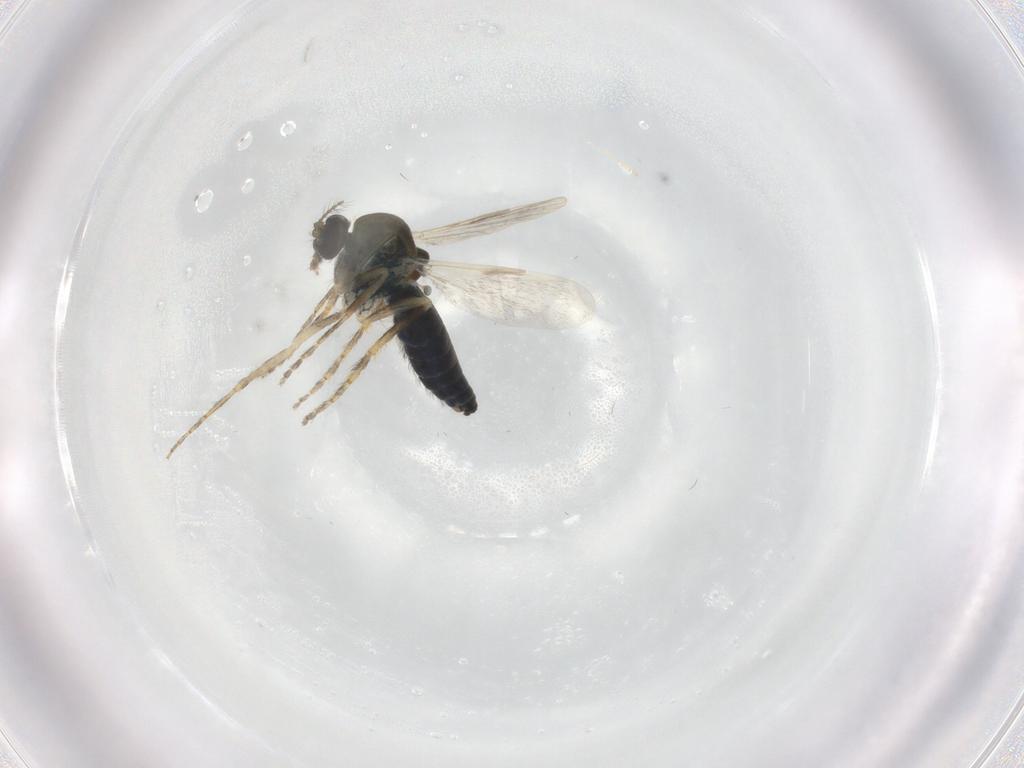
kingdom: Animalia
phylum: Arthropoda
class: Insecta
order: Diptera
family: Ceratopogonidae
